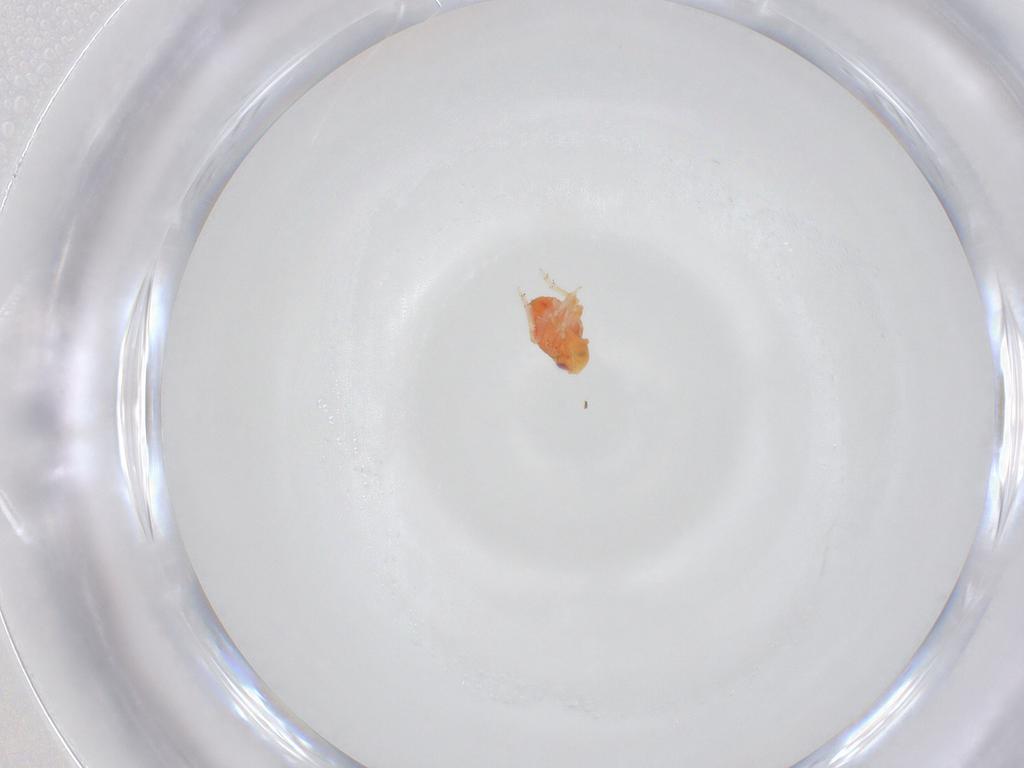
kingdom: Animalia
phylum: Arthropoda
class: Insecta
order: Hemiptera
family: Issidae
